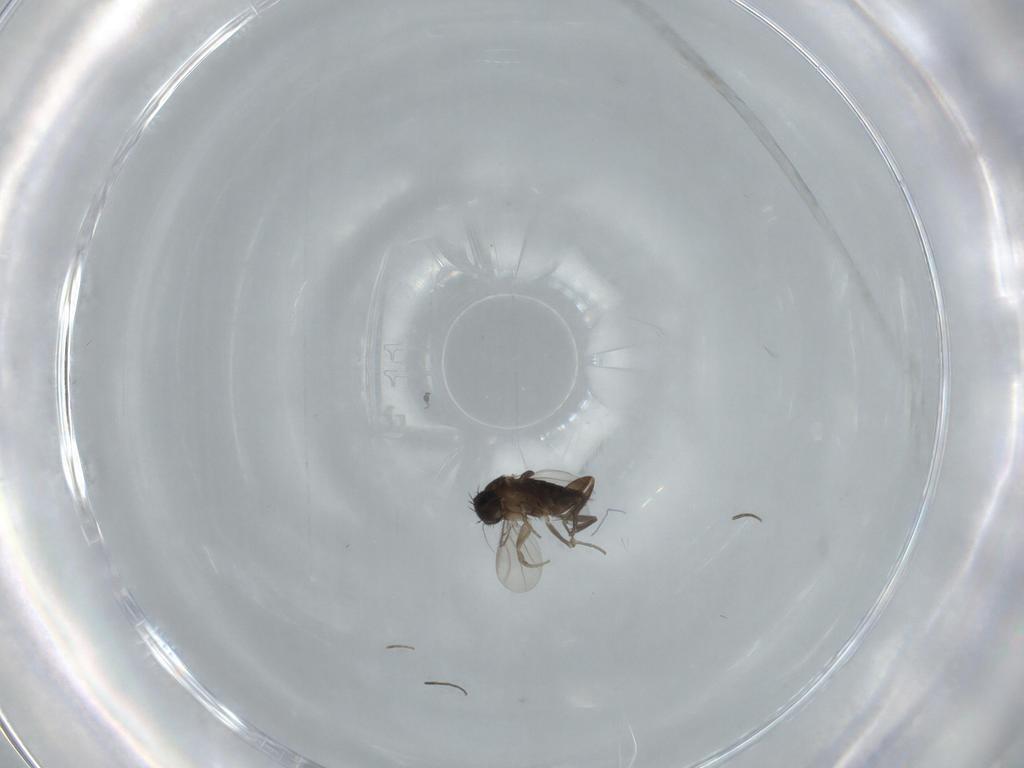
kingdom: Animalia
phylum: Arthropoda
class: Insecta
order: Diptera
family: Phoridae
